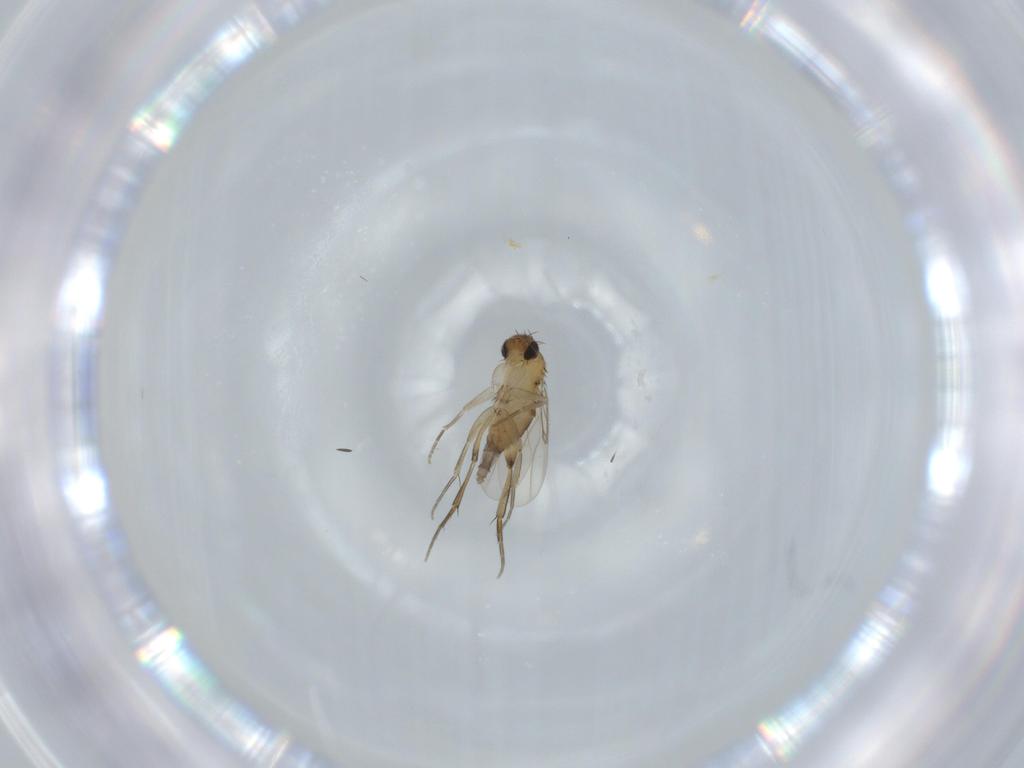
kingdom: Animalia
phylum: Arthropoda
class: Insecta
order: Diptera
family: Phoridae
